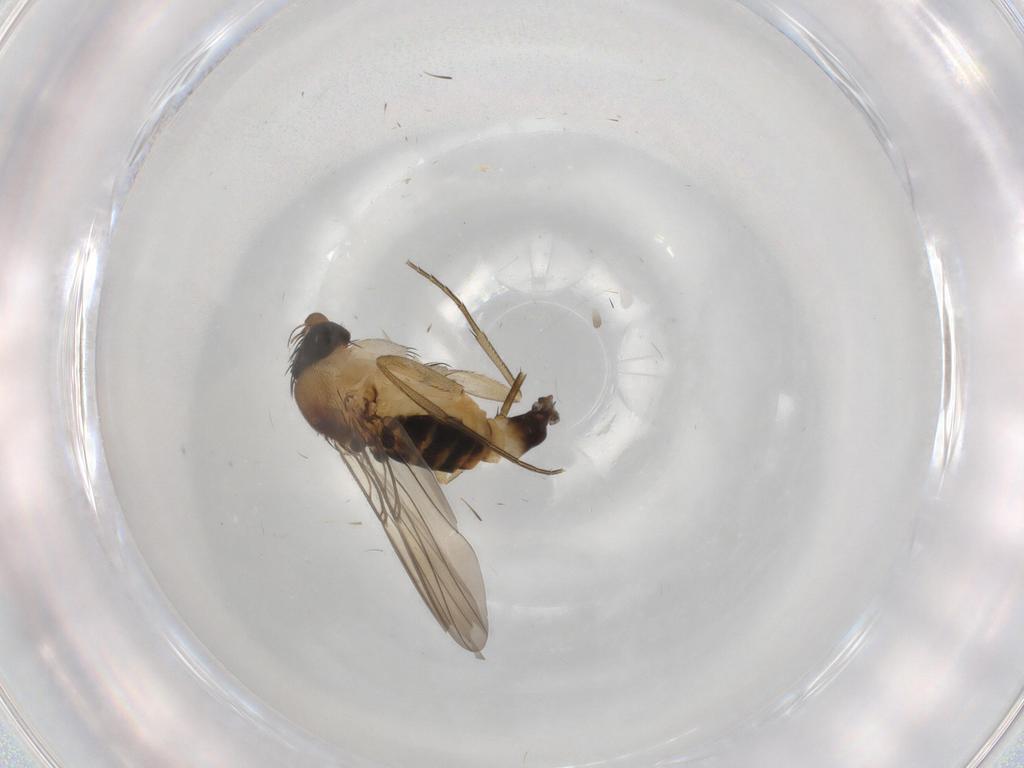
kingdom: Animalia
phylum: Arthropoda
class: Insecta
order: Diptera
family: Phoridae
